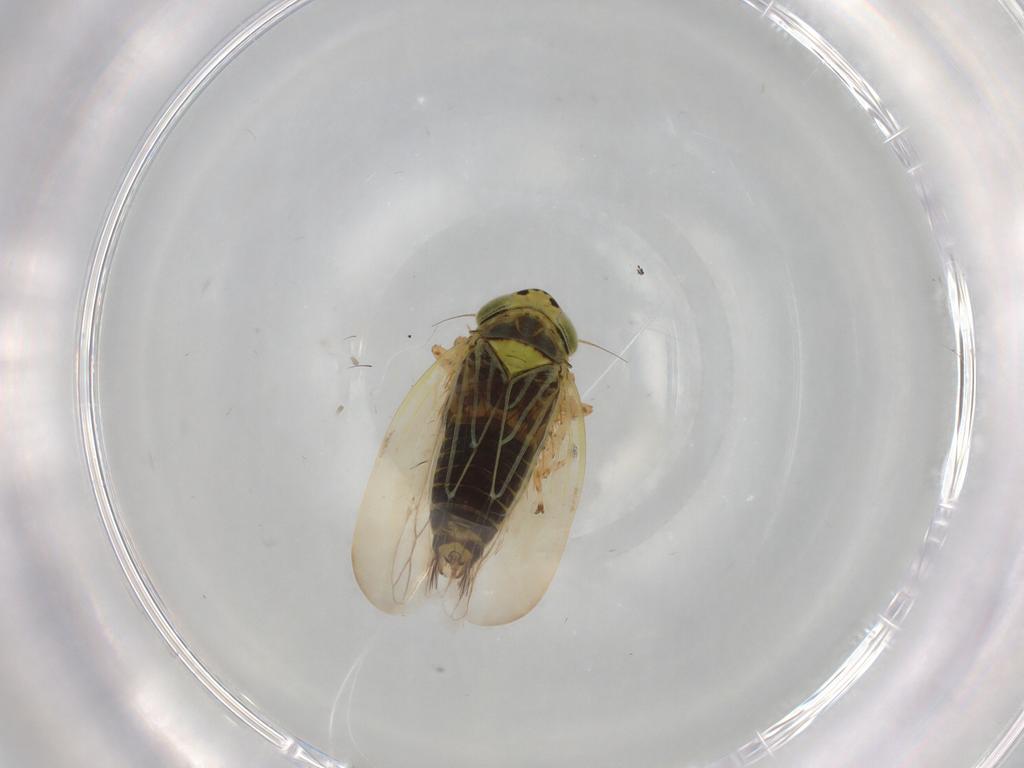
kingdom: Animalia
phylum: Arthropoda
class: Insecta
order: Hemiptera
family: Cicadellidae
